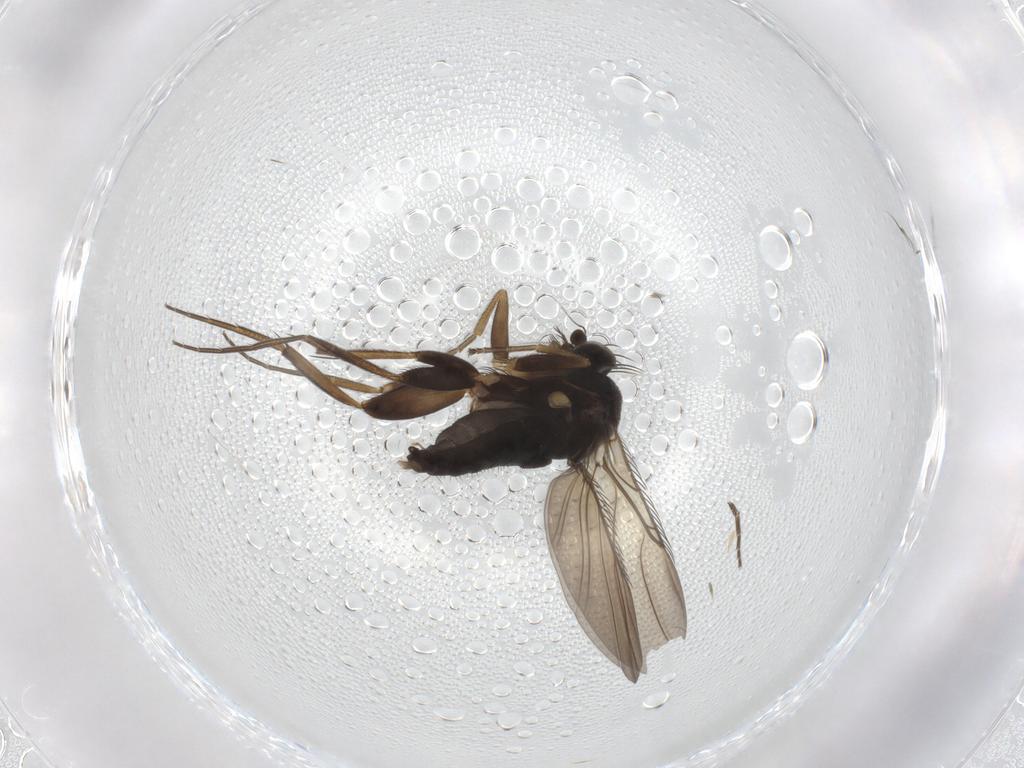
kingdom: Animalia
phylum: Arthropoda
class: Insecta
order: Diptera
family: Phoridae
